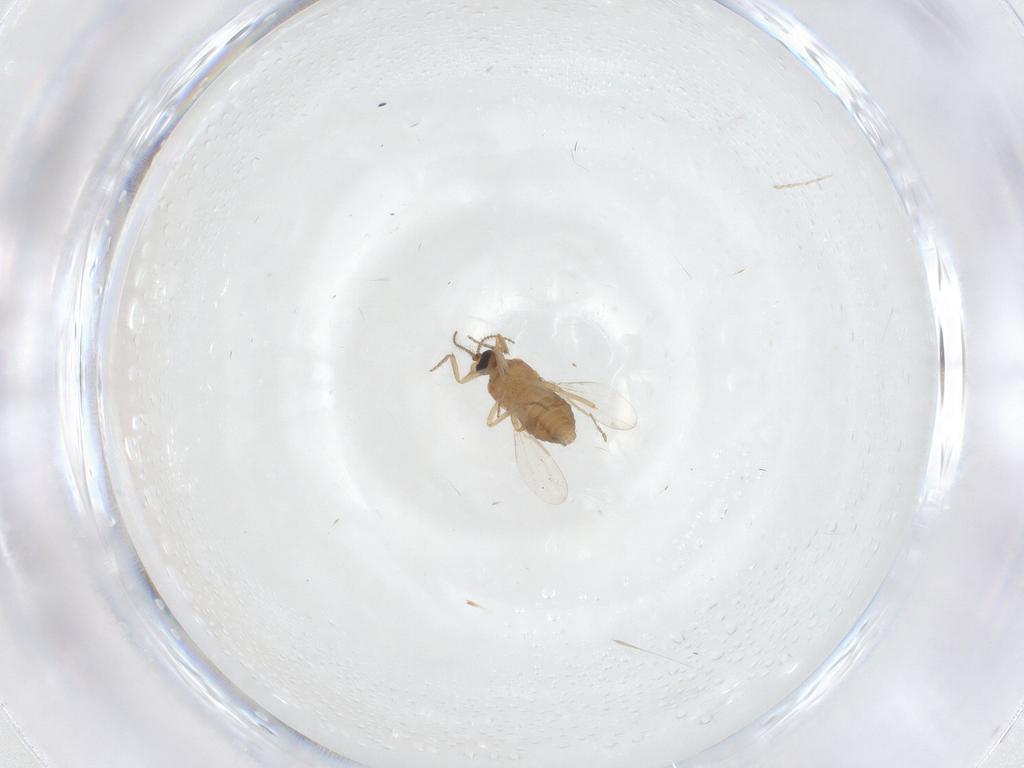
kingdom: Animalia
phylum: Arthropoda
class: Insecta
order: Diptera
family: Ceratopogonidae
